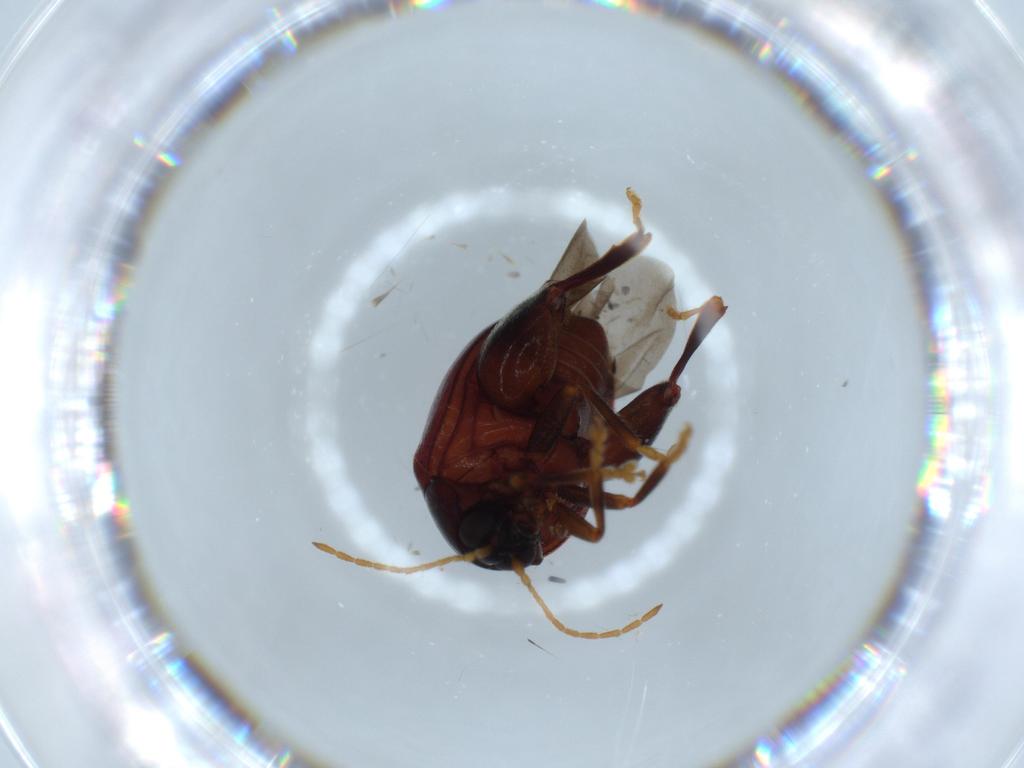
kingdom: Animalia
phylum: Arthropoda
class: Insecta
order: Coleoptera
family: Chrysomelidae
